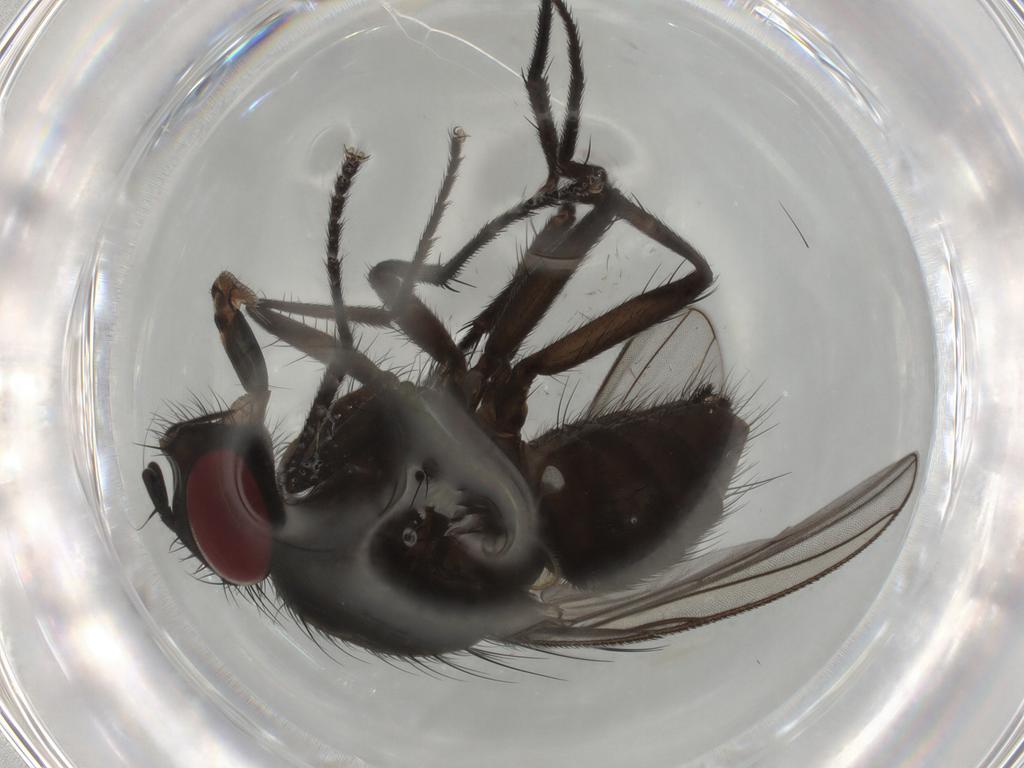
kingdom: Animalia
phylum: Arthropoda
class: Insecta
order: Diptera
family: Muscidae
